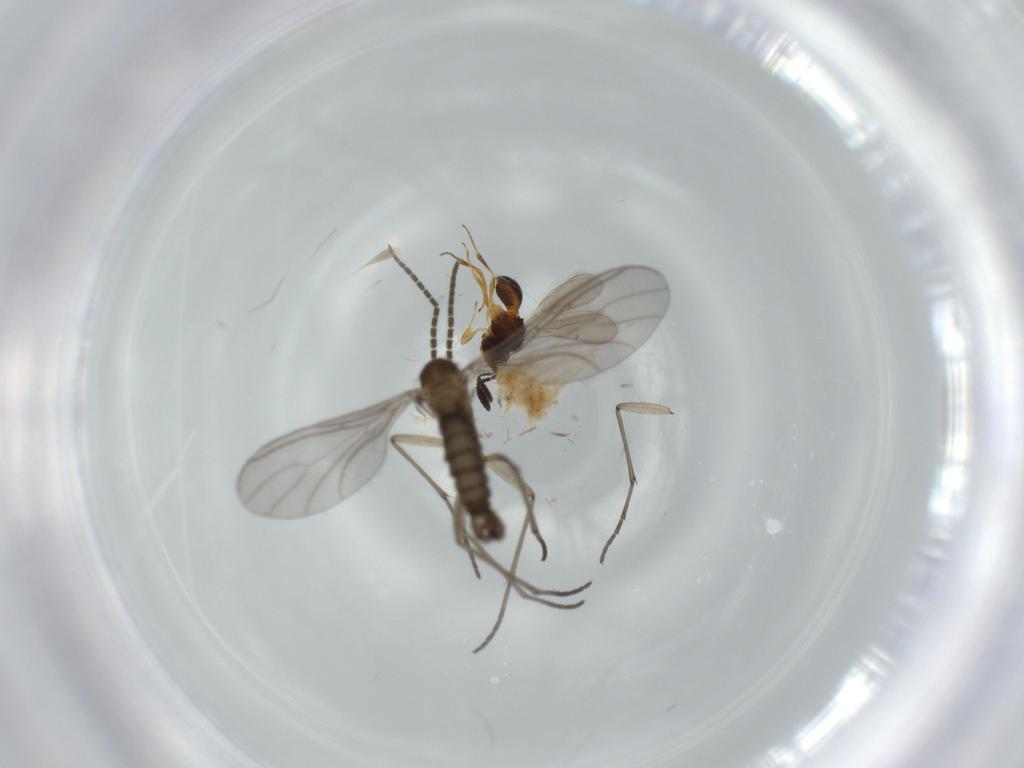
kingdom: Animalia
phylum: Arthropoda
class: Insecta
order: Diptera
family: Sciaridae
